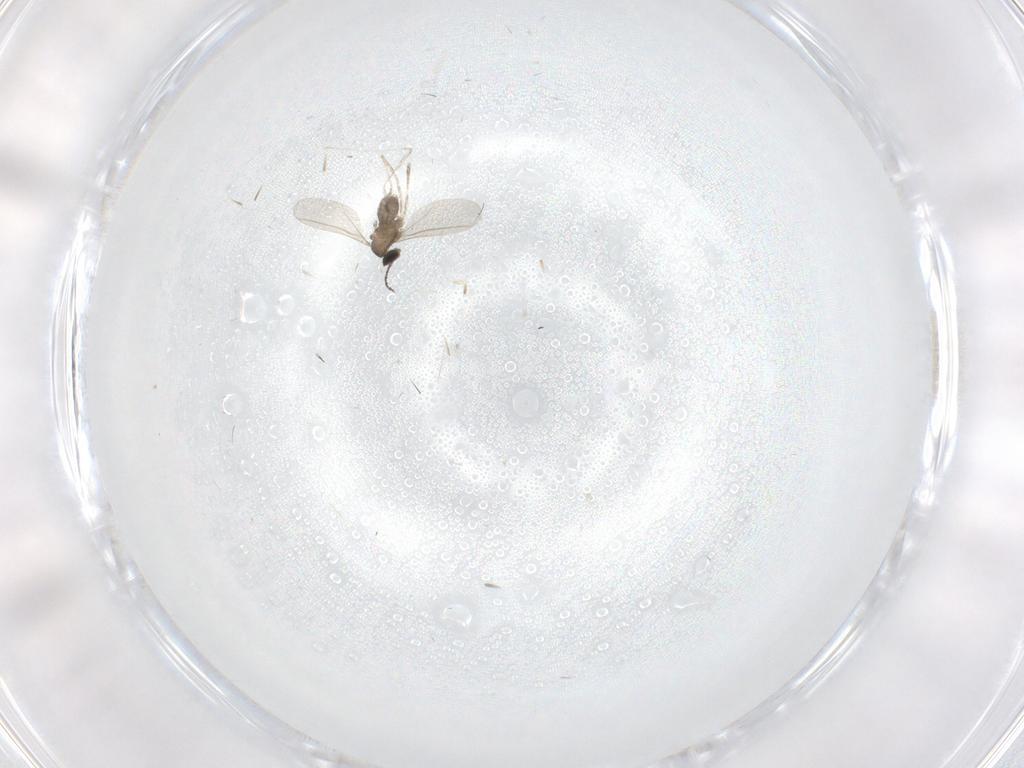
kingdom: Animalia
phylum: Arthropoda
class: Insecta
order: Diptera
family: Cecidomyiidae
